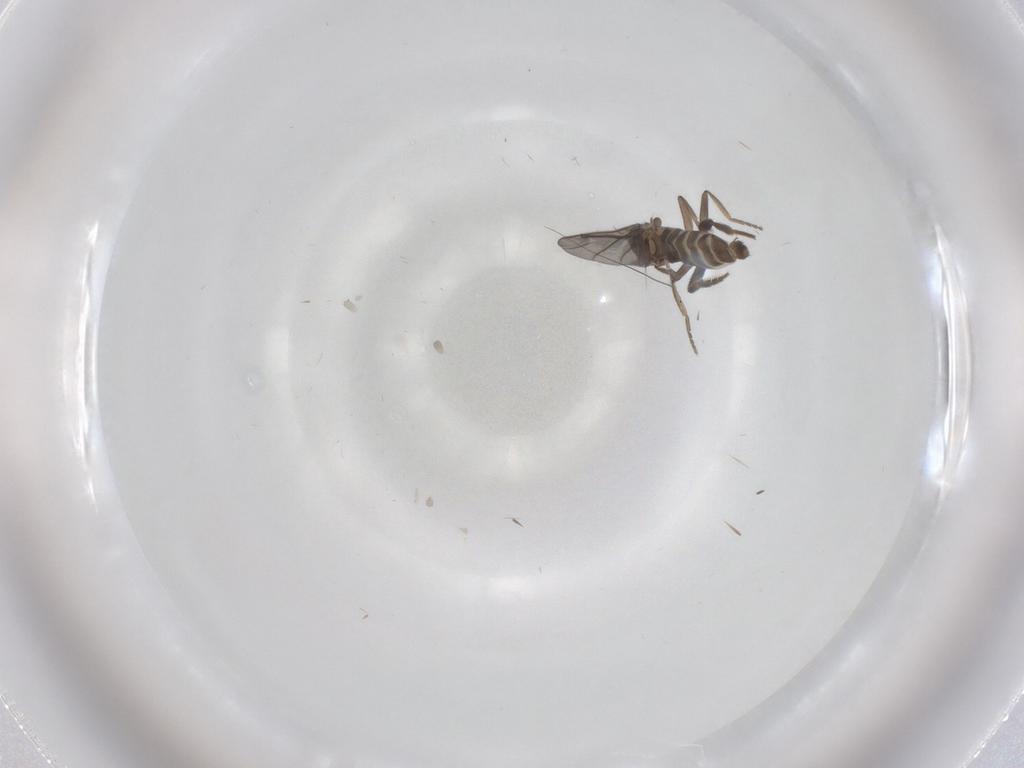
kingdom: Animalia
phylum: Arthropoda
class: Insecta
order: Diptera
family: Phoridae
